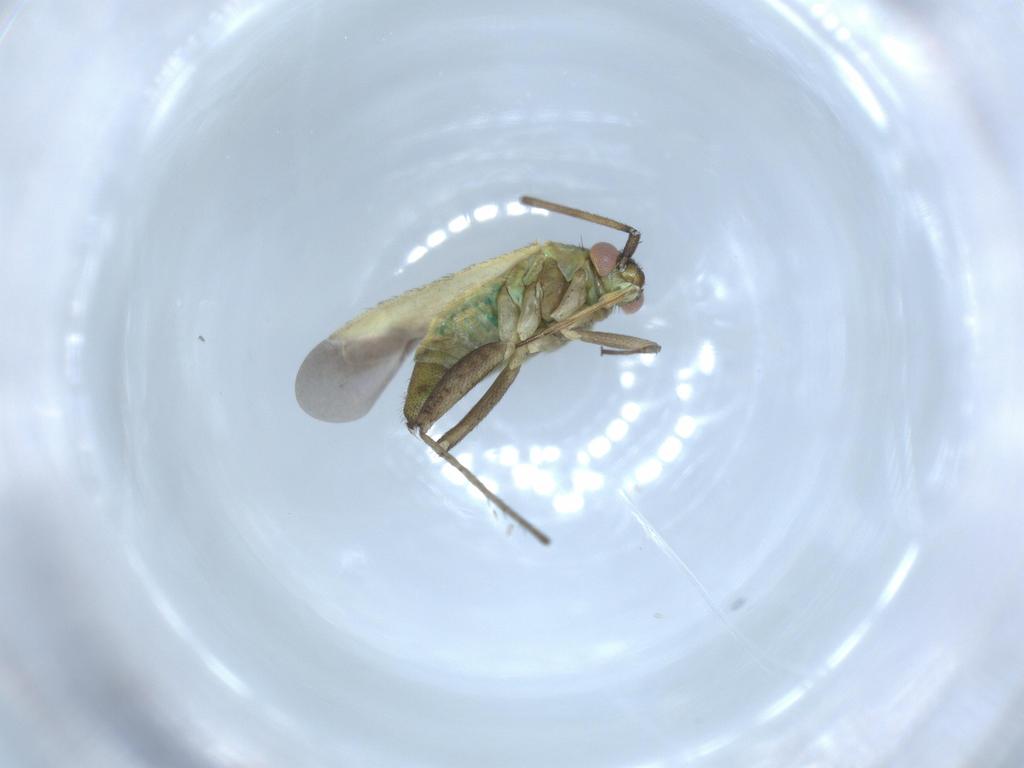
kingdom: Animalia
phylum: Arthropoda
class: Insecta
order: Hemiptera
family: Miridae
